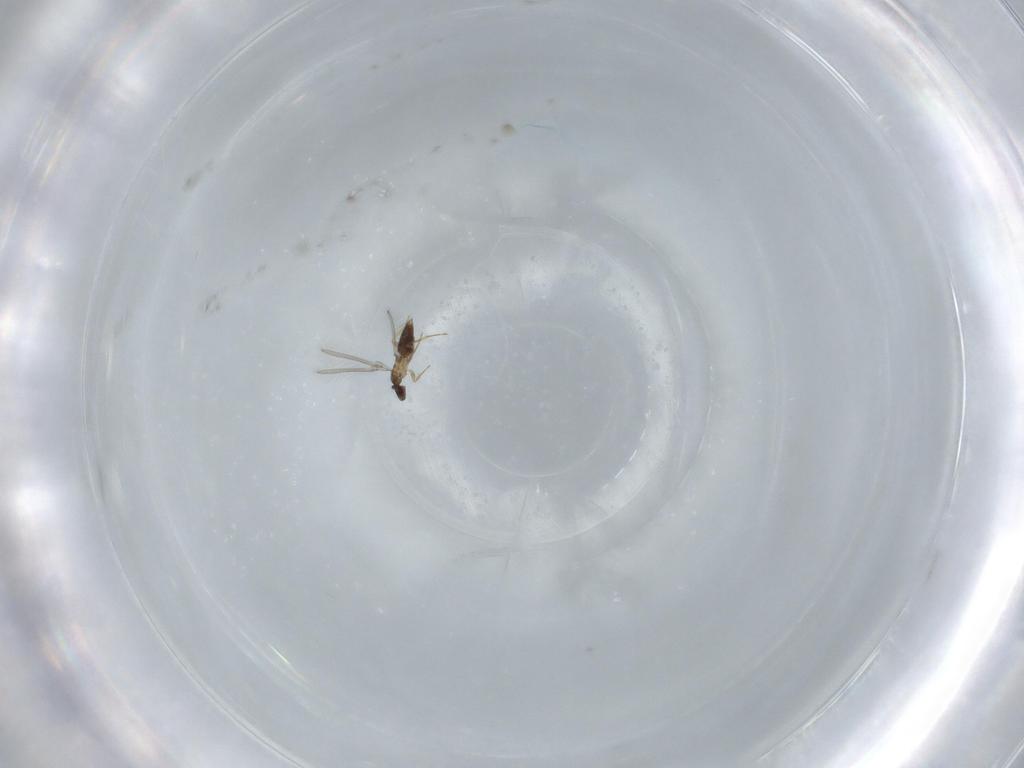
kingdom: Animalia
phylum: Arthropoda
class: Insecta
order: Hymenoptera
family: Mymaridae
